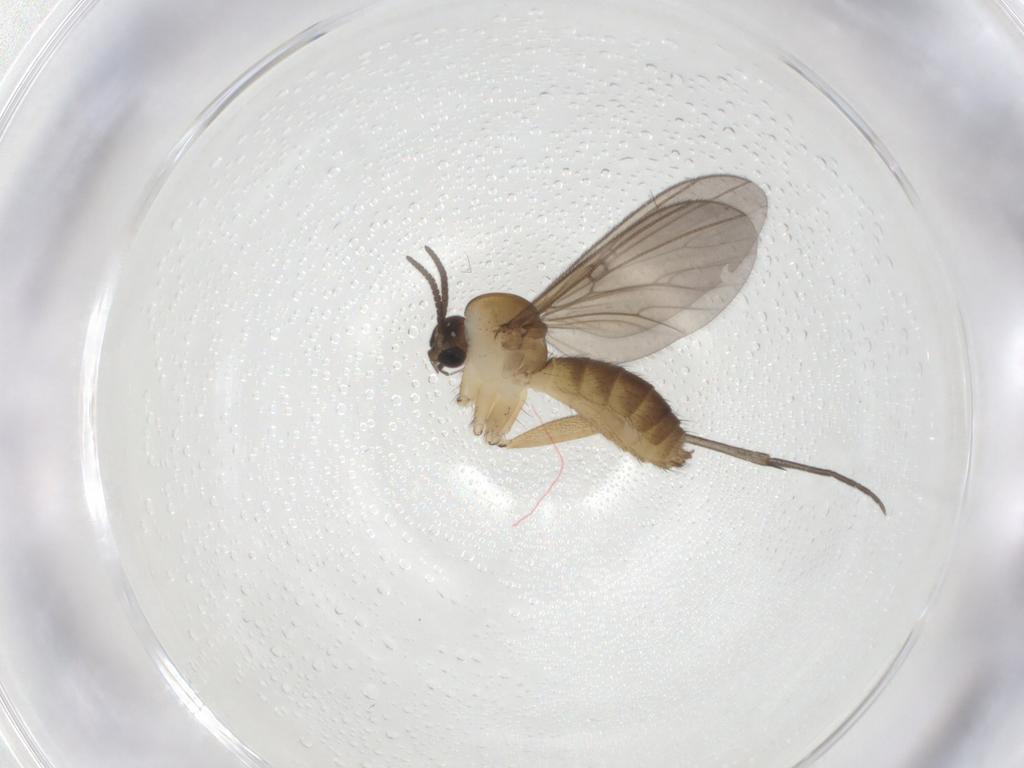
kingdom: Animalia
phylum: Arthropoda
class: Insecta
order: Diptera
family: Mycetophilidae
